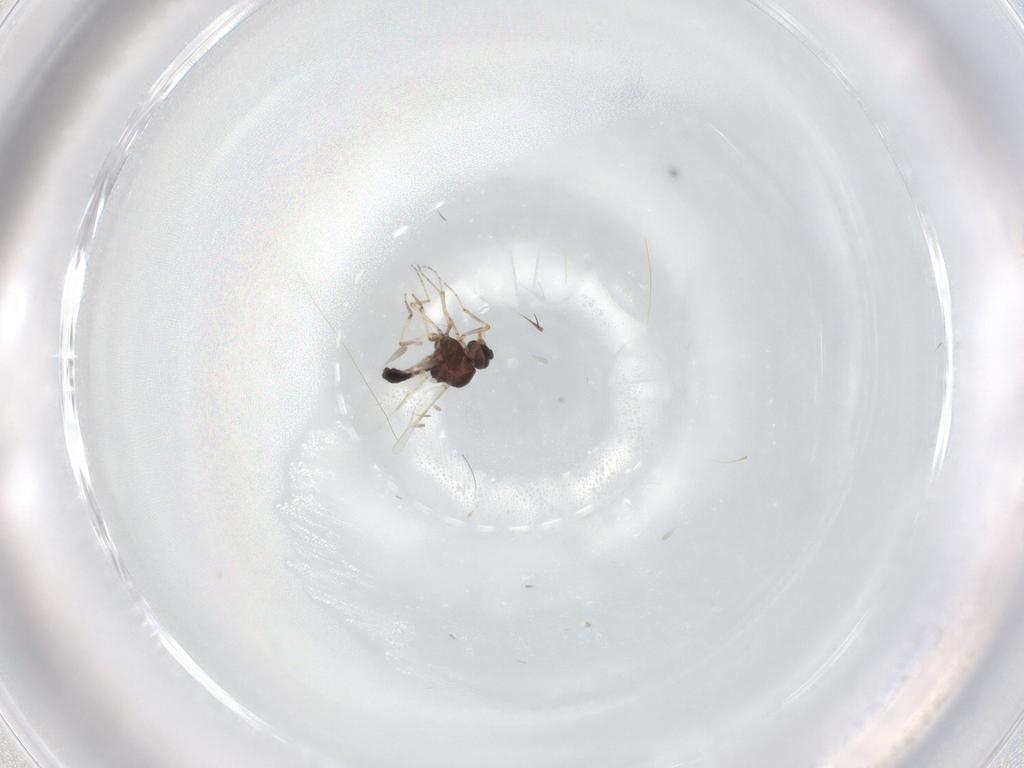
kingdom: Animalia
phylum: Arthropoda
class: Insecta
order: Diptera
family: Ceratopogonidae
